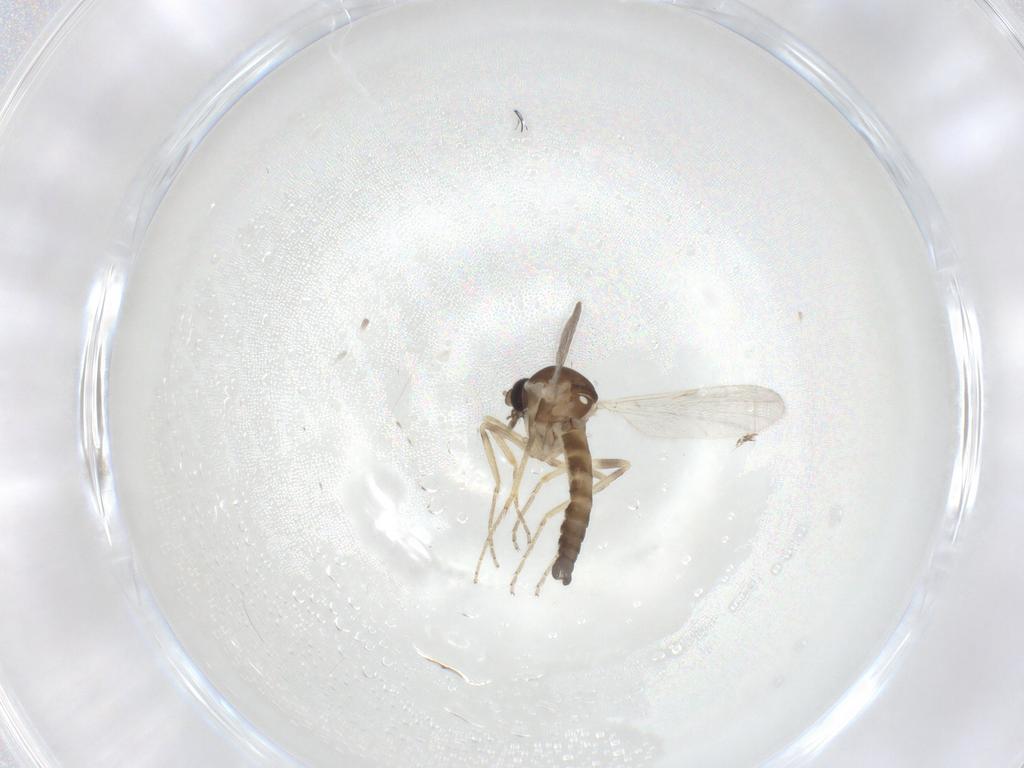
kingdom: Animalia
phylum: Arthropoda
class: Insecta
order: Diptera
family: Ceratopogonidae
